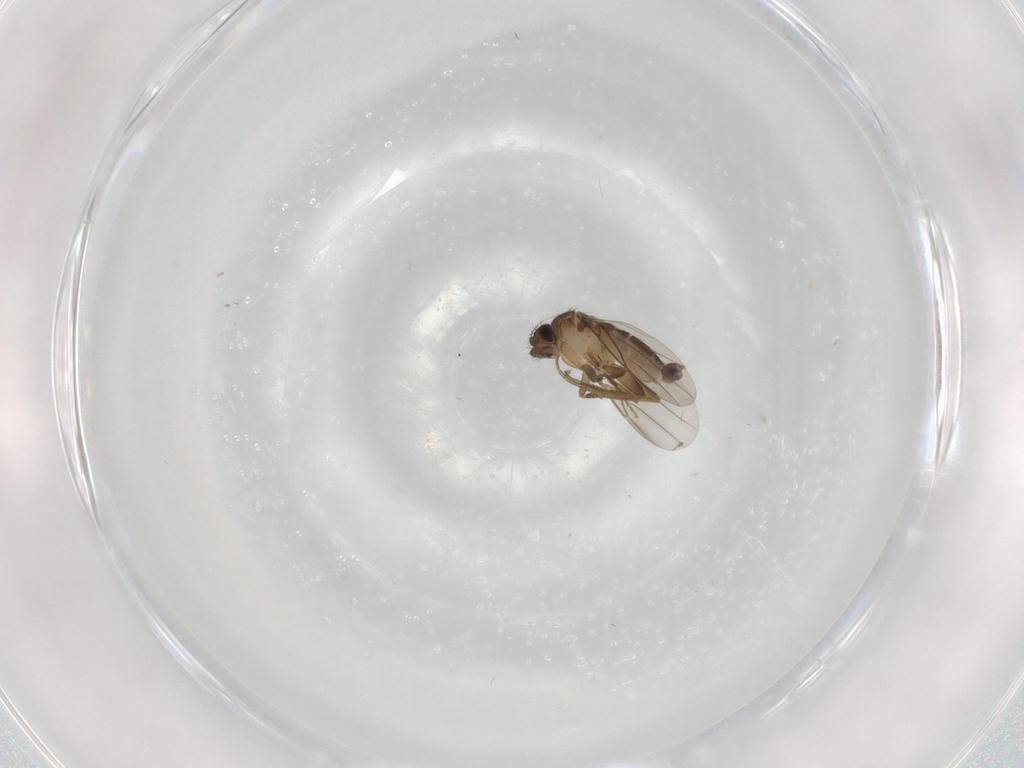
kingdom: Animalia
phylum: Arthropoda
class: Insecta
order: Diptera
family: Phoridae
